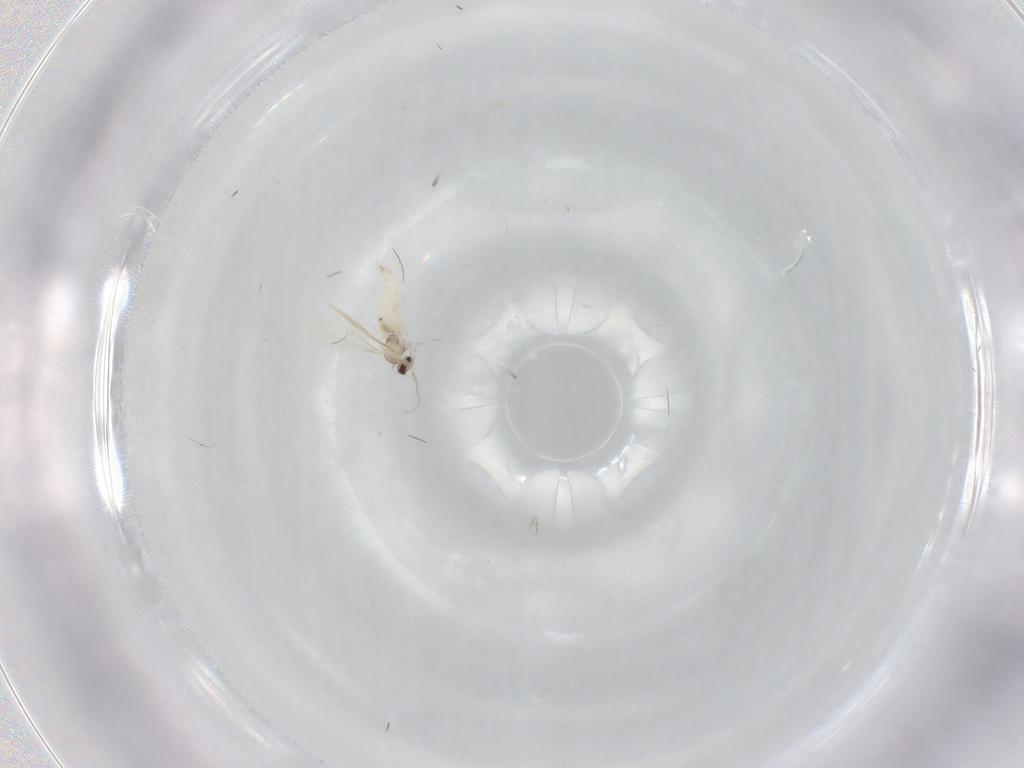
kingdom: Animalia
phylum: Arthropoda
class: Insecta
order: Diptera
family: Cecidomyiidae
